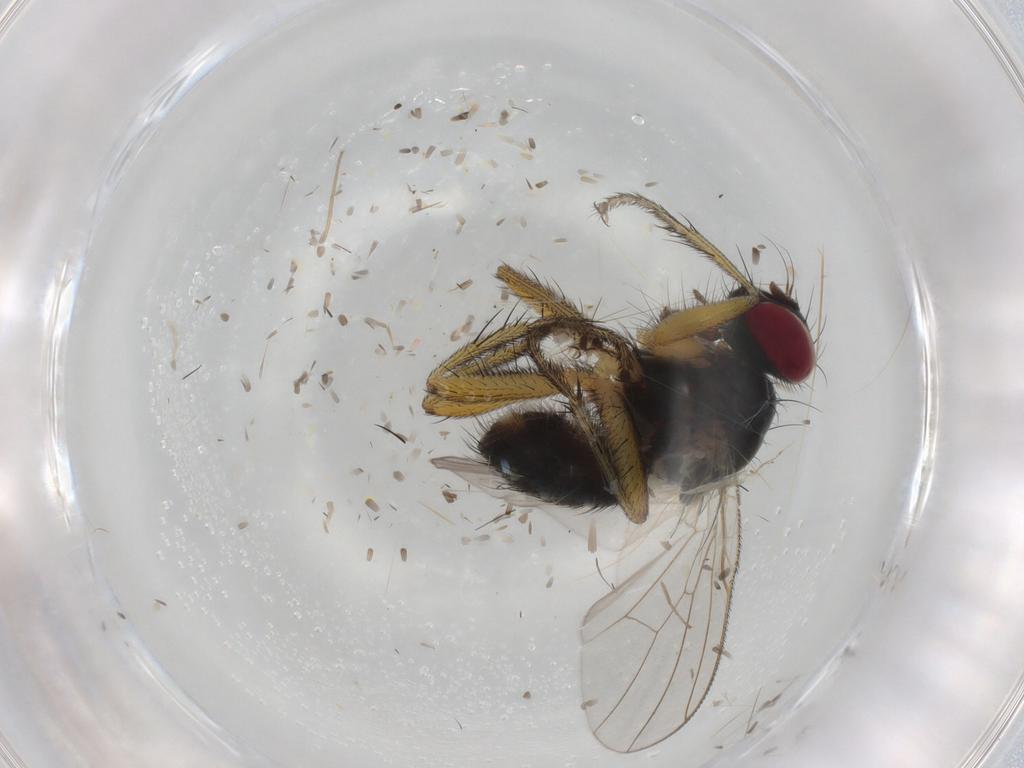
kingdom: Animalia
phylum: Arthropoda
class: Insecta
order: Diptera
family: Muscidae
